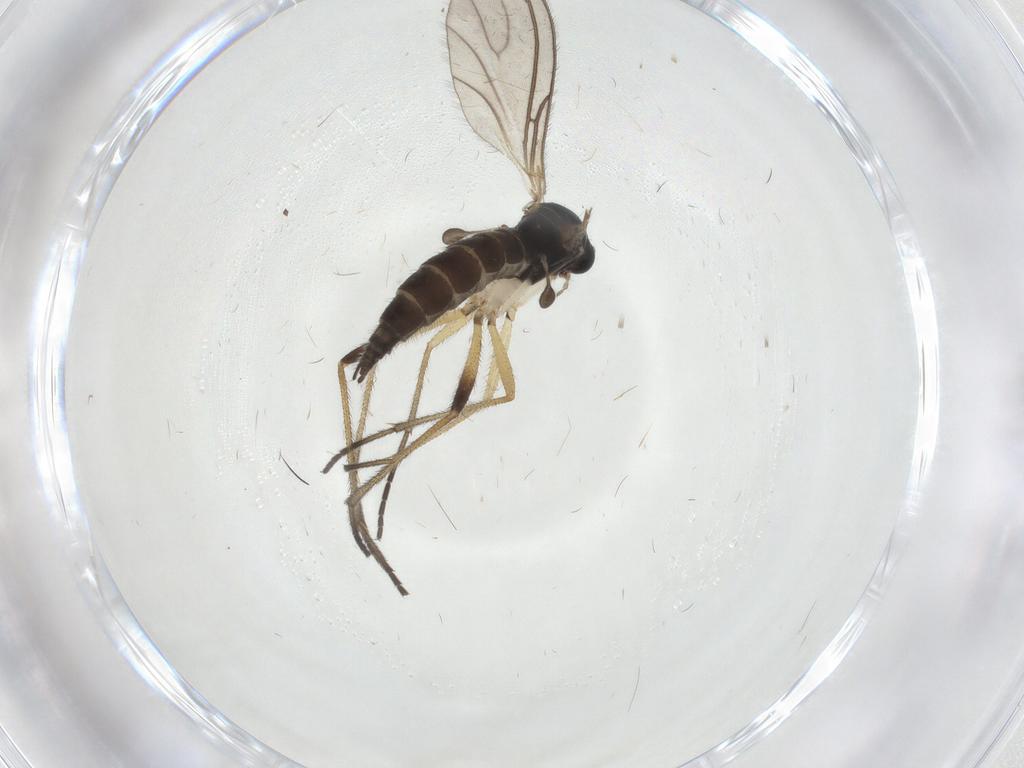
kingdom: Animalia
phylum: Arthropoda
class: Insecta
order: Diptera
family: Sciaridae
